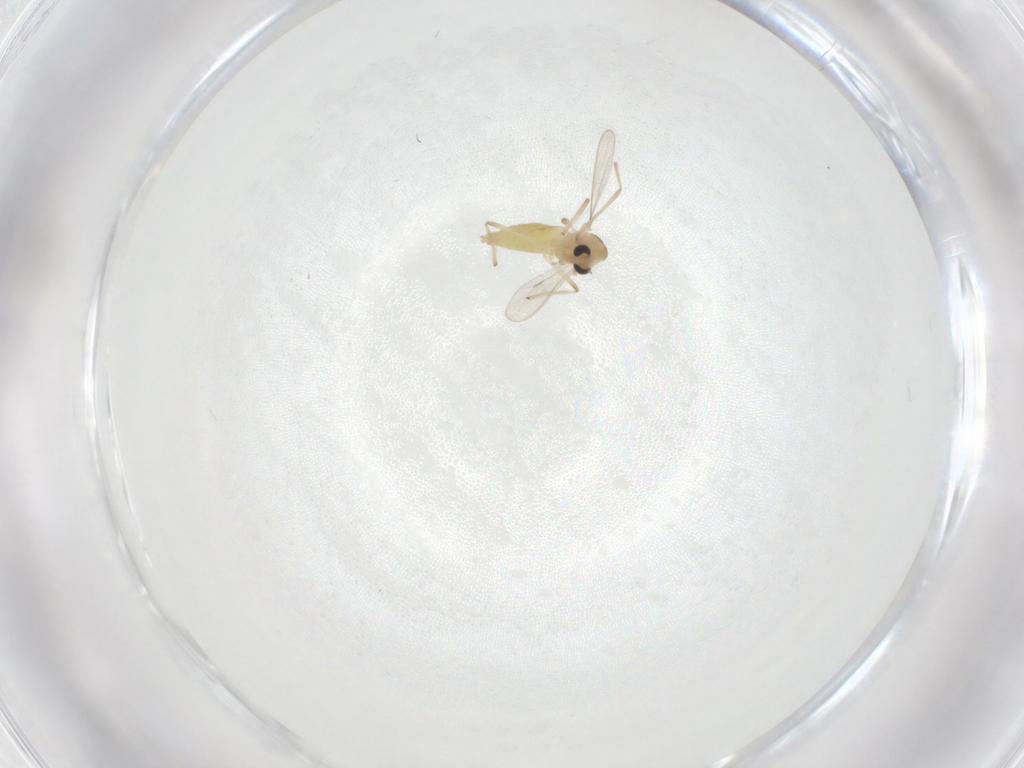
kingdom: Animalia
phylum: Arthropoda
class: Insecta
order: Diptera
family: Chironomidae
